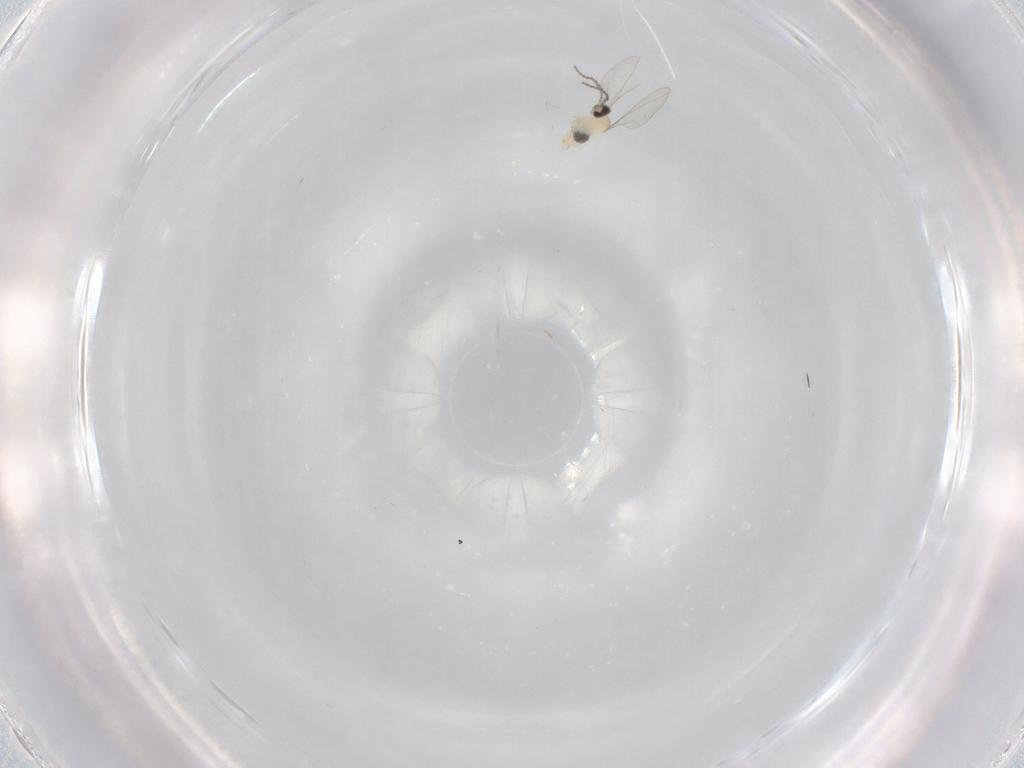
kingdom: Animalia
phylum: Arthropoda
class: Insecta
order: Diptera
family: Cecidomyiidae
